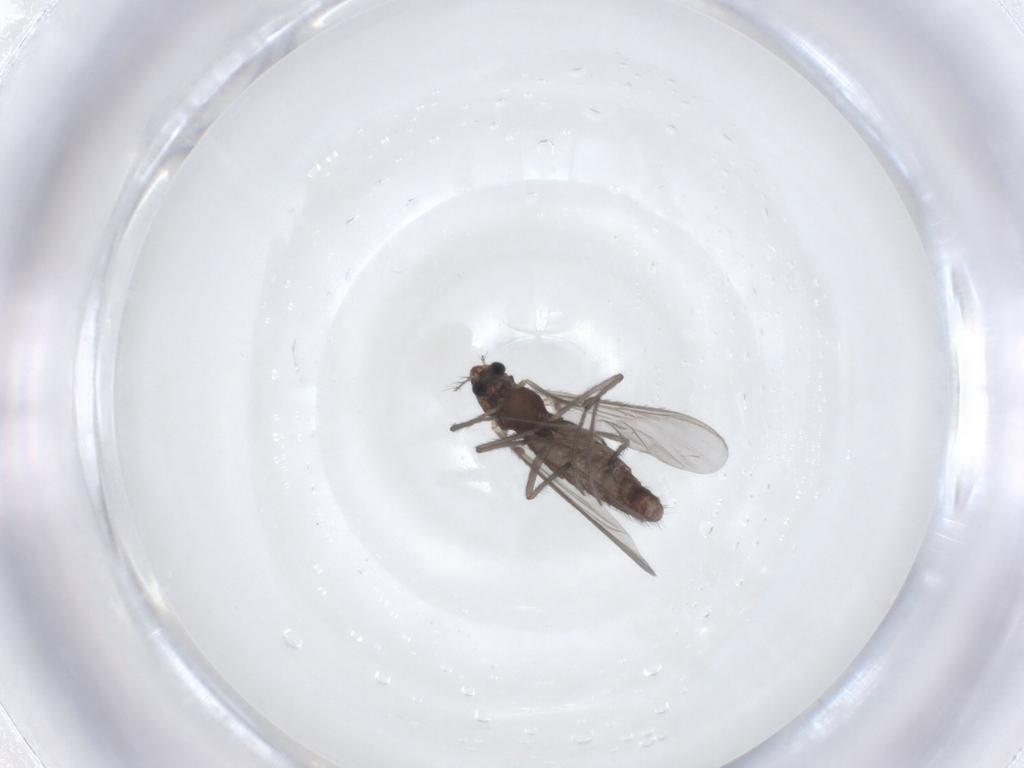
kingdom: Animalia
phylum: Arthropoda
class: Insecta
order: Diptera
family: Chironomidae
